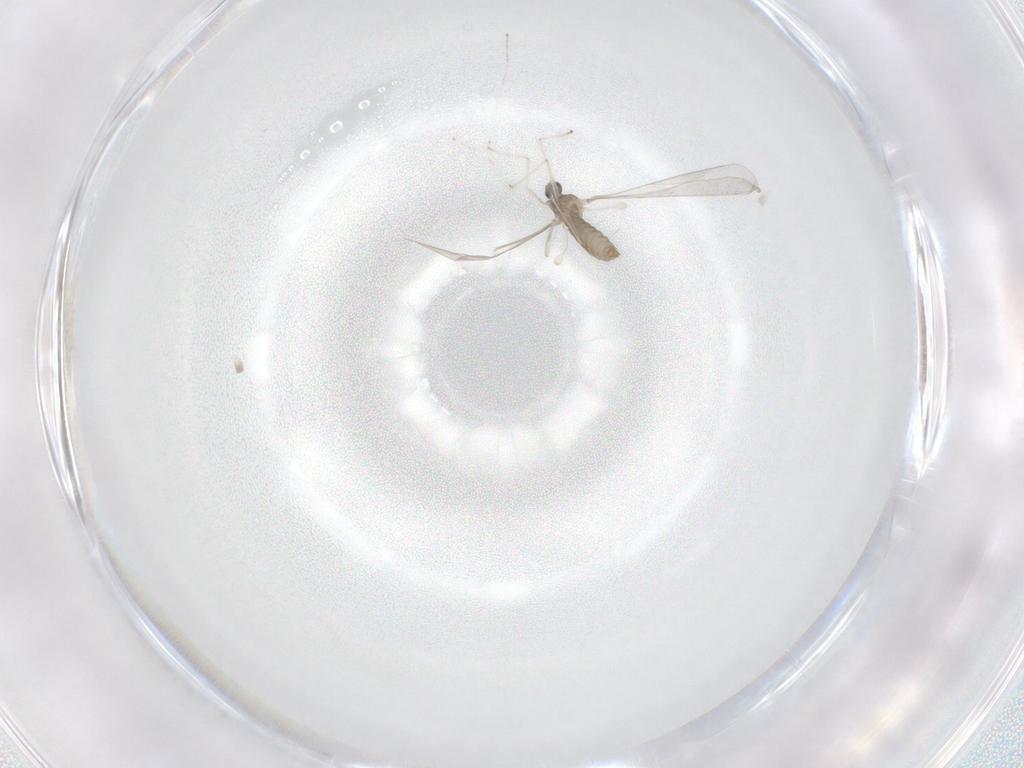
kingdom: Animalia
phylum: Arthropoda
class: Insecta
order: Diptera
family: Cecidomyiidae
